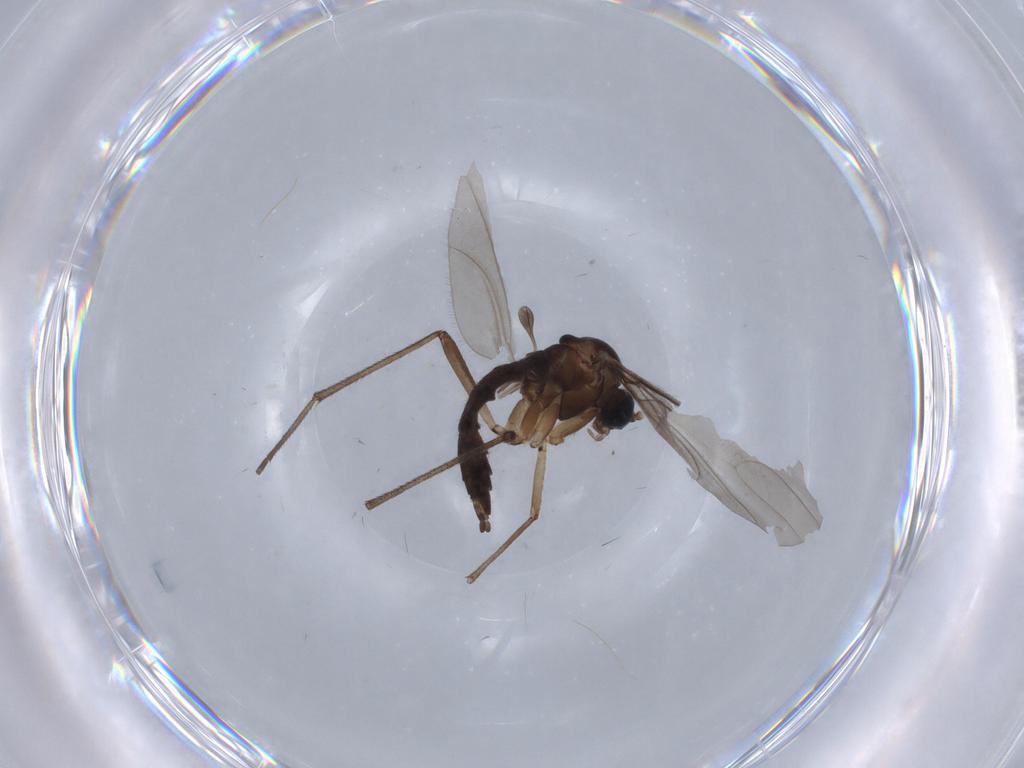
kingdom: Animalia
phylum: Arthropoda
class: Insecta
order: Diptera
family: Sciaridae
